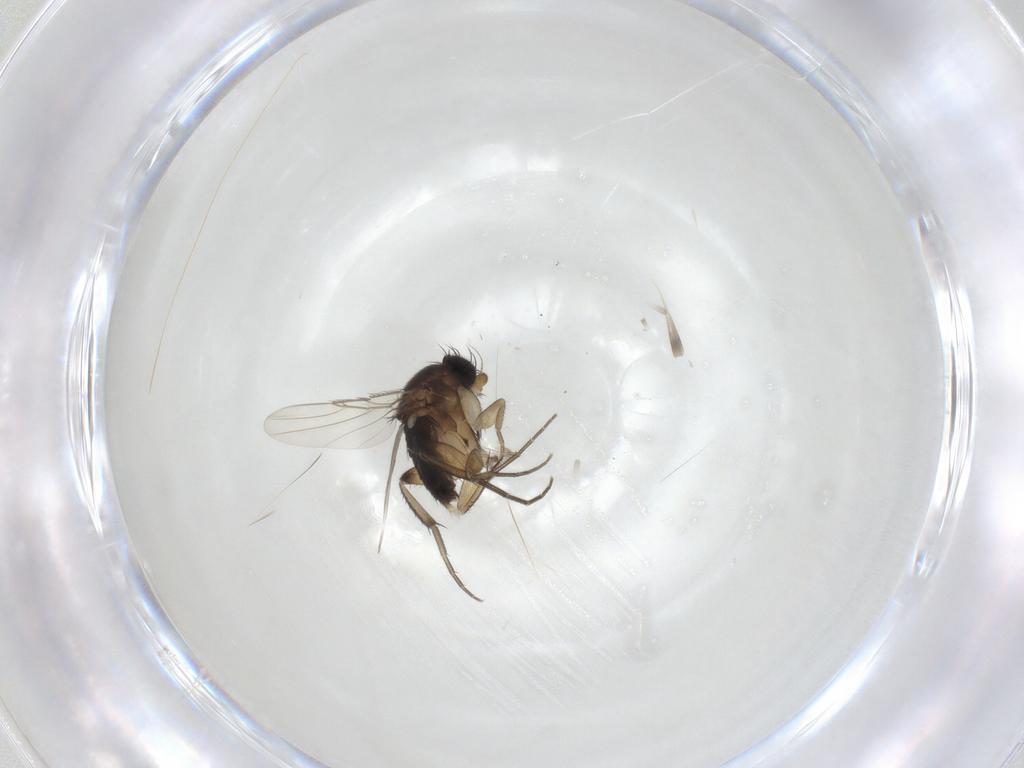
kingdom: Animalia
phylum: Arthropoda
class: Insecta
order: Diptera
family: Phoridae
